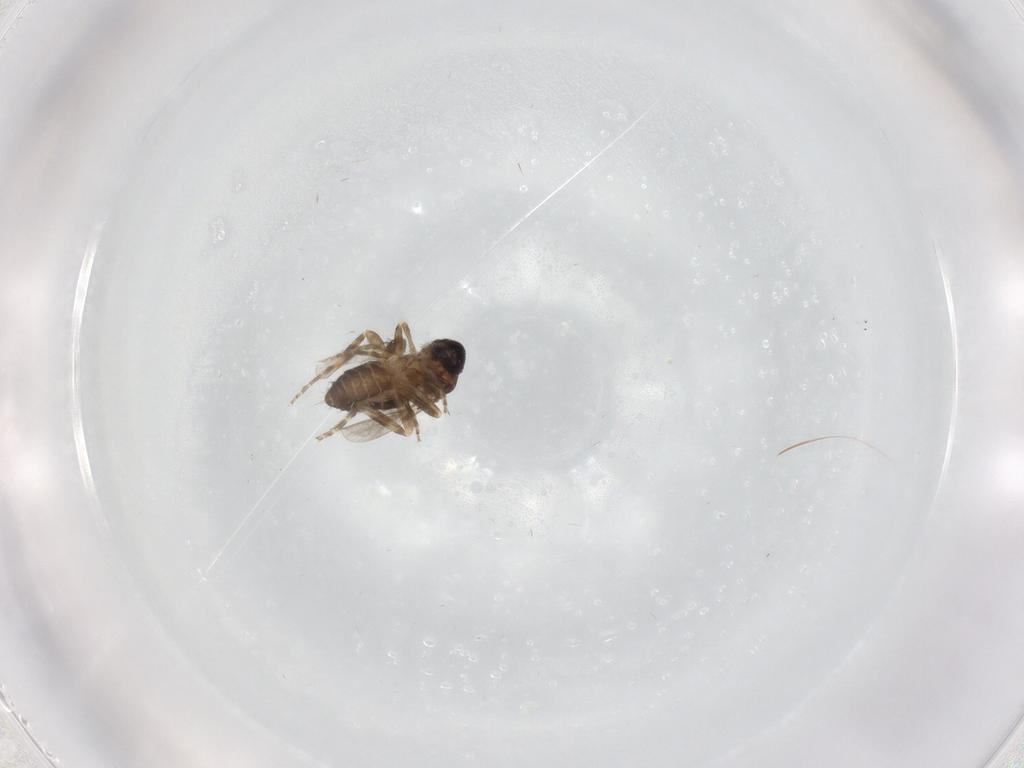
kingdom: Animalia
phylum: Arthropoda
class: Insecta
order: Diptera
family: Ceratopogonidae
